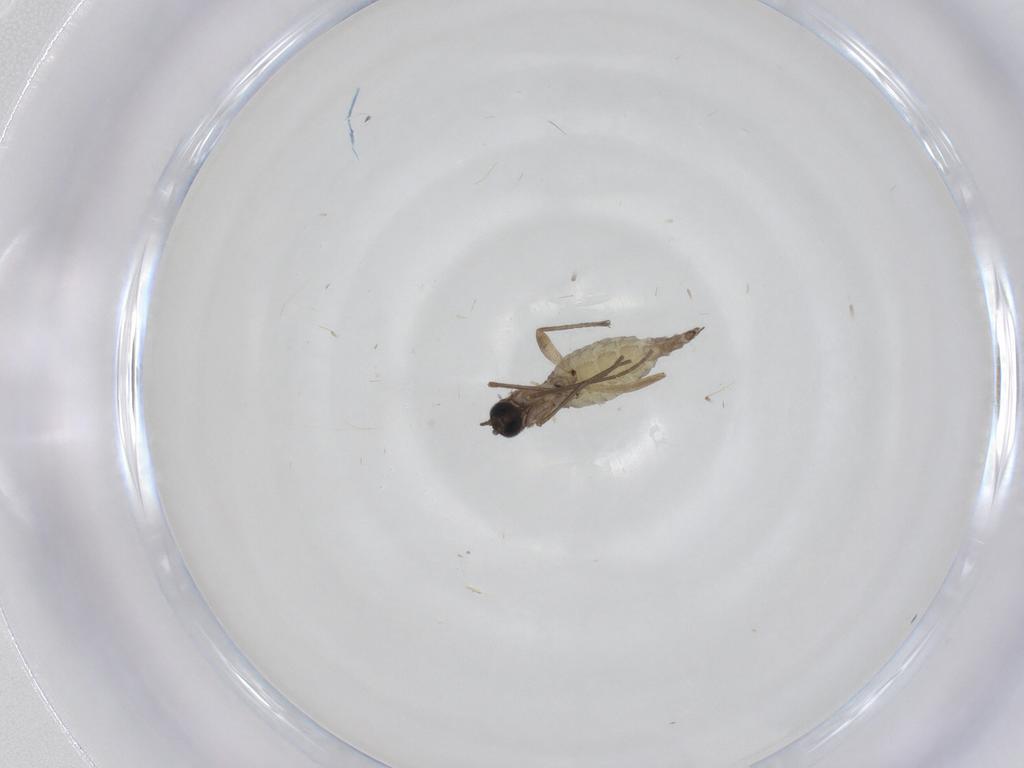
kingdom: Animalia
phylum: Arthropoda
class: Insecta
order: Diptera
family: Sciaridae
